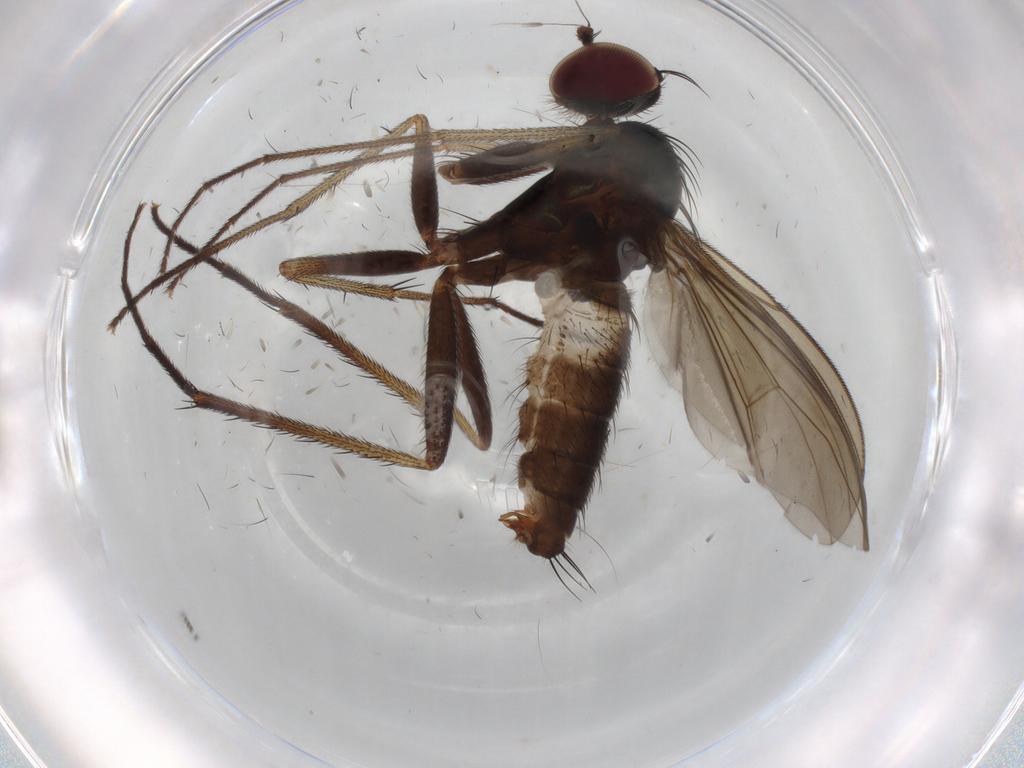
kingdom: Animalia
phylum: Arthropoda
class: Insecta
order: Diptera
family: Dolichopodidae
